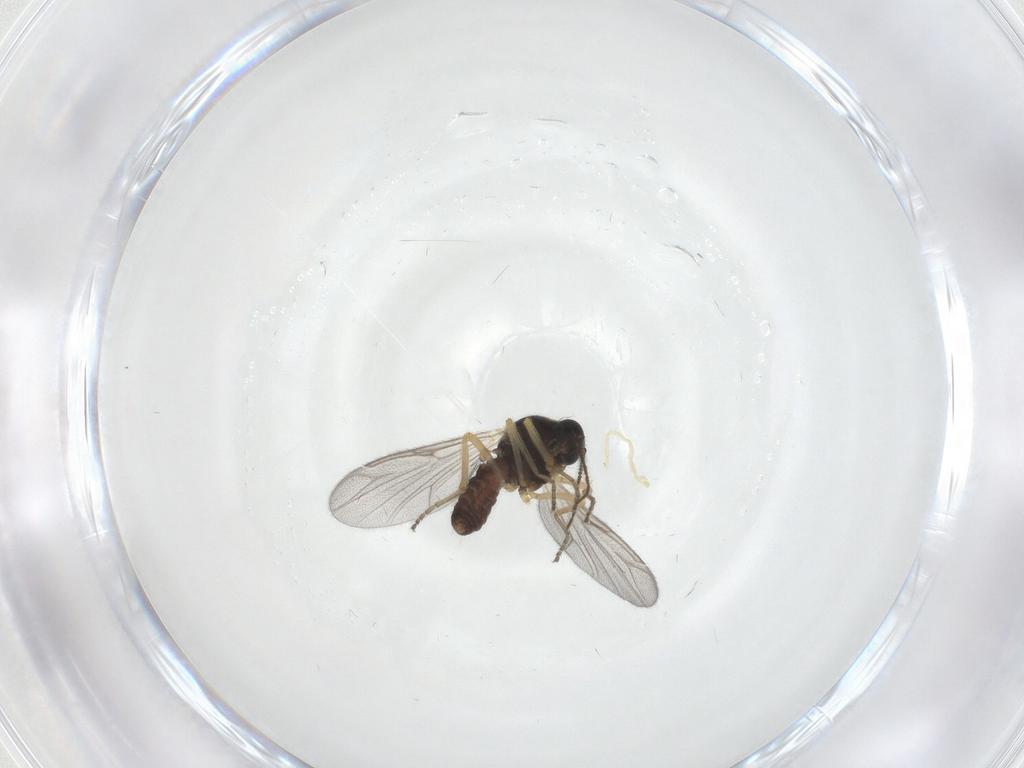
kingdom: Animalia
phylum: Arthropoda
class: Insecta
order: Diptera
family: Ceratopogonidae
